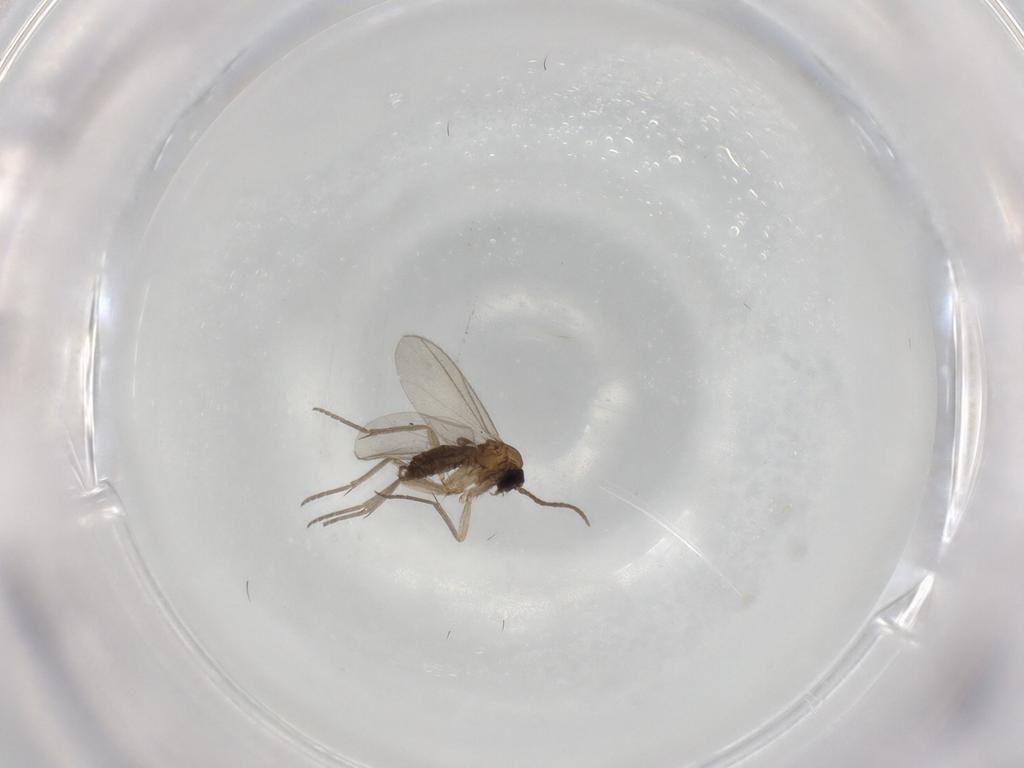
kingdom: Animalia
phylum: Arthropoda
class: Insecta
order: Diptera
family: Sciaridae
